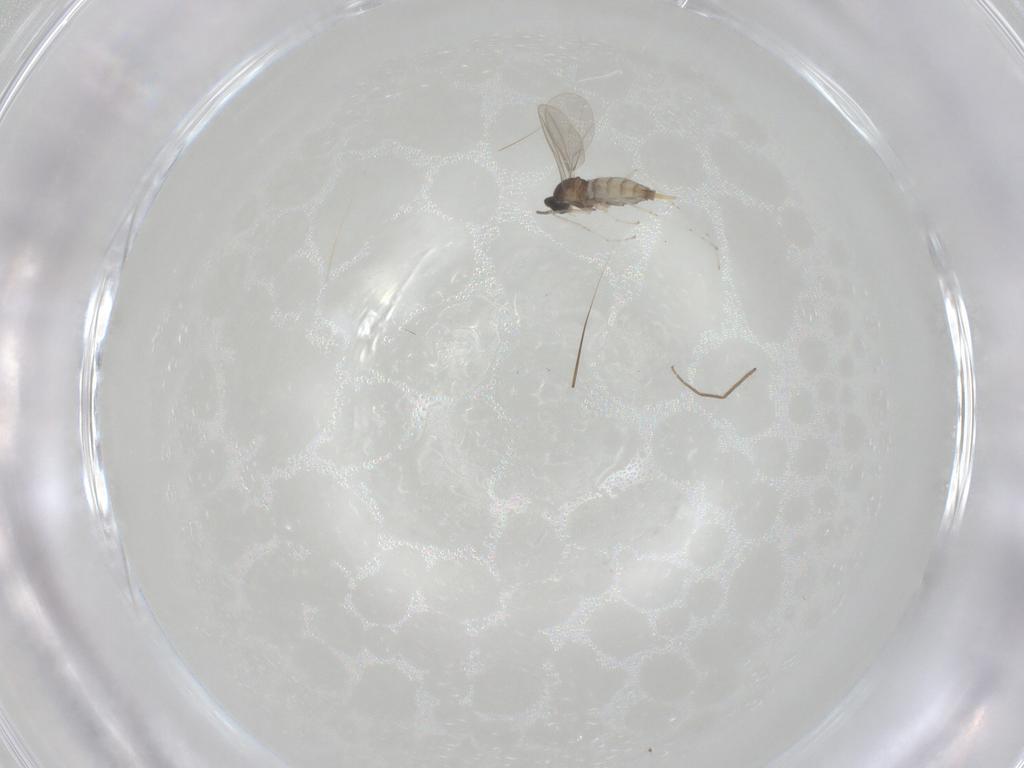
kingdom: Animalia
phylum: Arthropoda
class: Insecta
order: Diptera
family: Chironomidae
